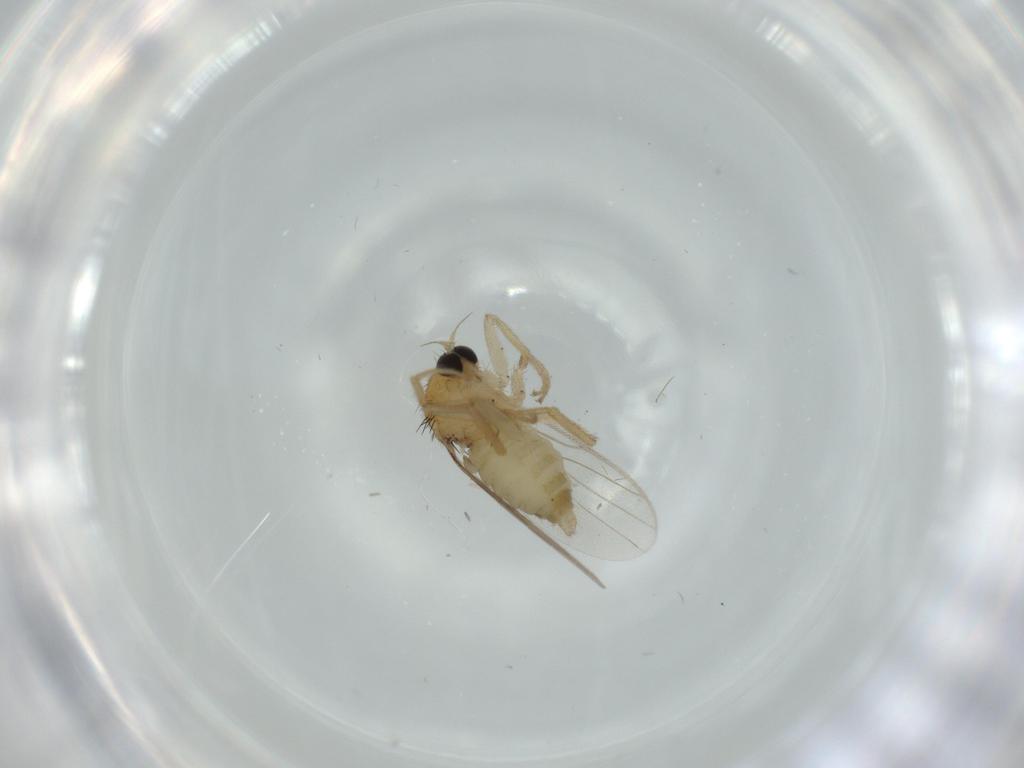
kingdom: Animalia
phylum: Arthropoda
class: Insecta
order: Diptera
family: Hybotidae
